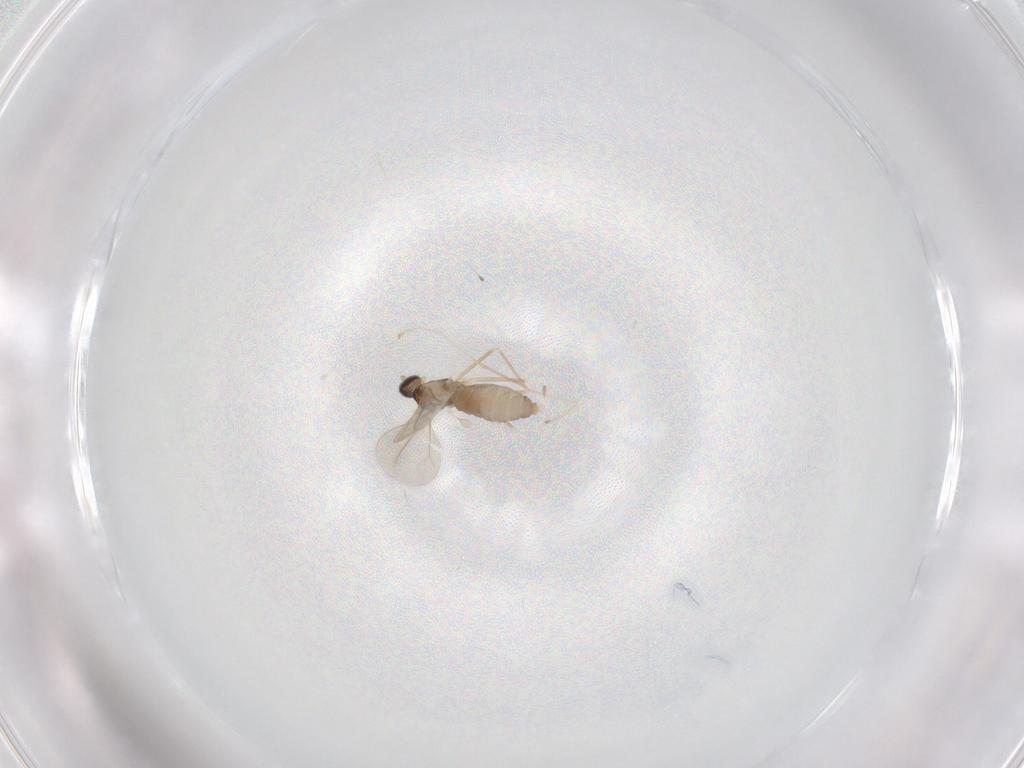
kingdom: Animalia
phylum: Arthropoda
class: Insecta
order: Diptera
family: Cecidomyiidae
